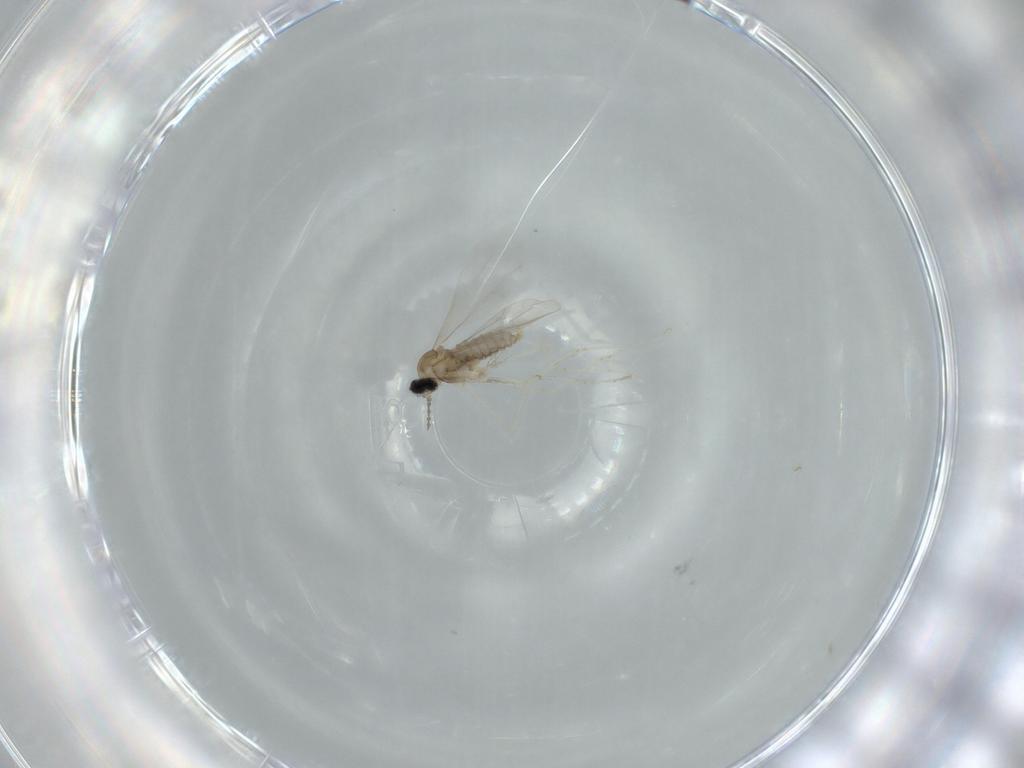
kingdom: Animalia
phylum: Arthropoda
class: Insecta
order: Diptera
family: Cecidomyiidae
